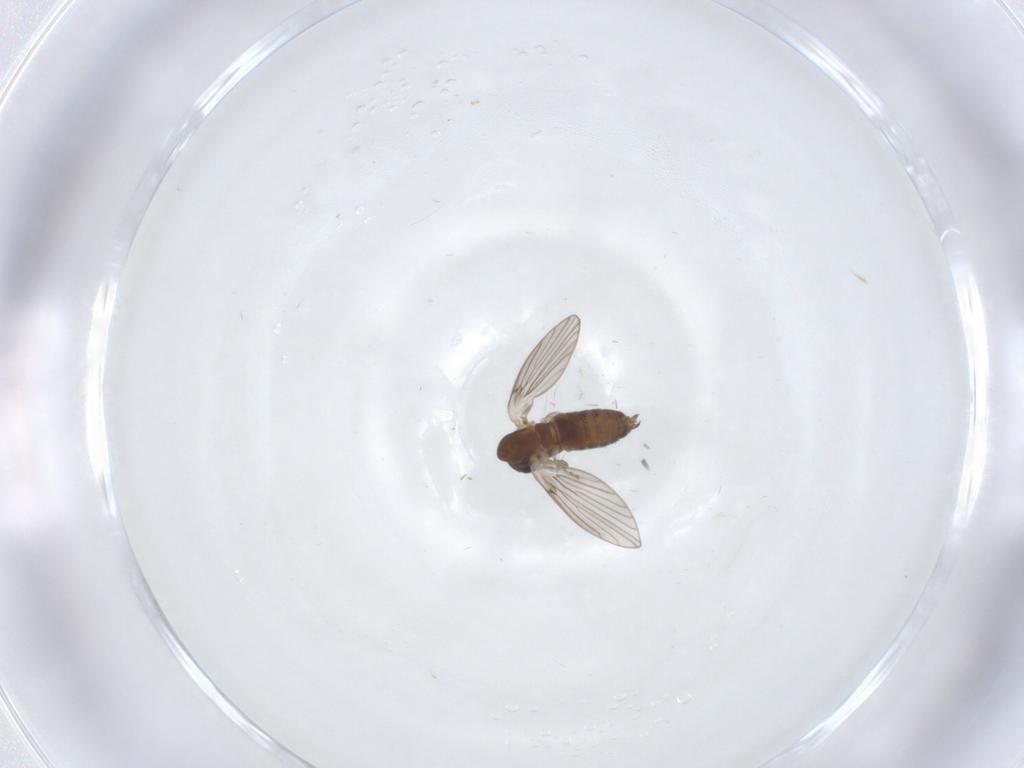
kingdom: Animalia
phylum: Arthropoda
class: Insecta
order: Diptera
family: Psychodidae
